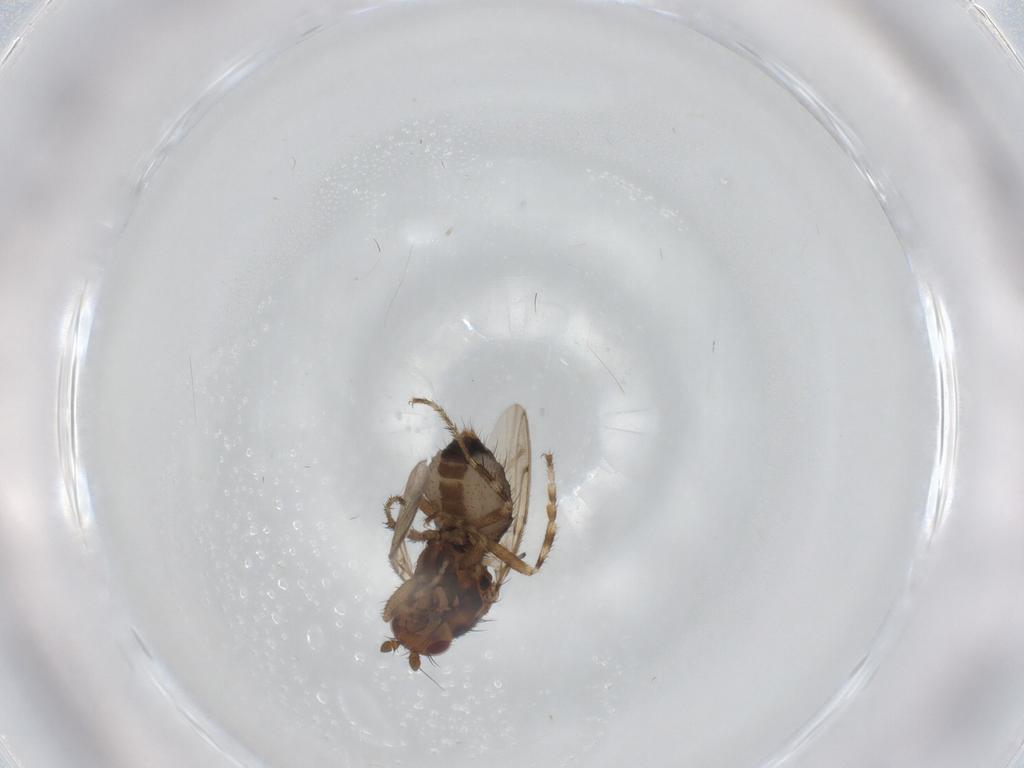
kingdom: Animalia
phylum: Arthropoda
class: Insecta
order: Diptera
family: Sphaeroceridae
